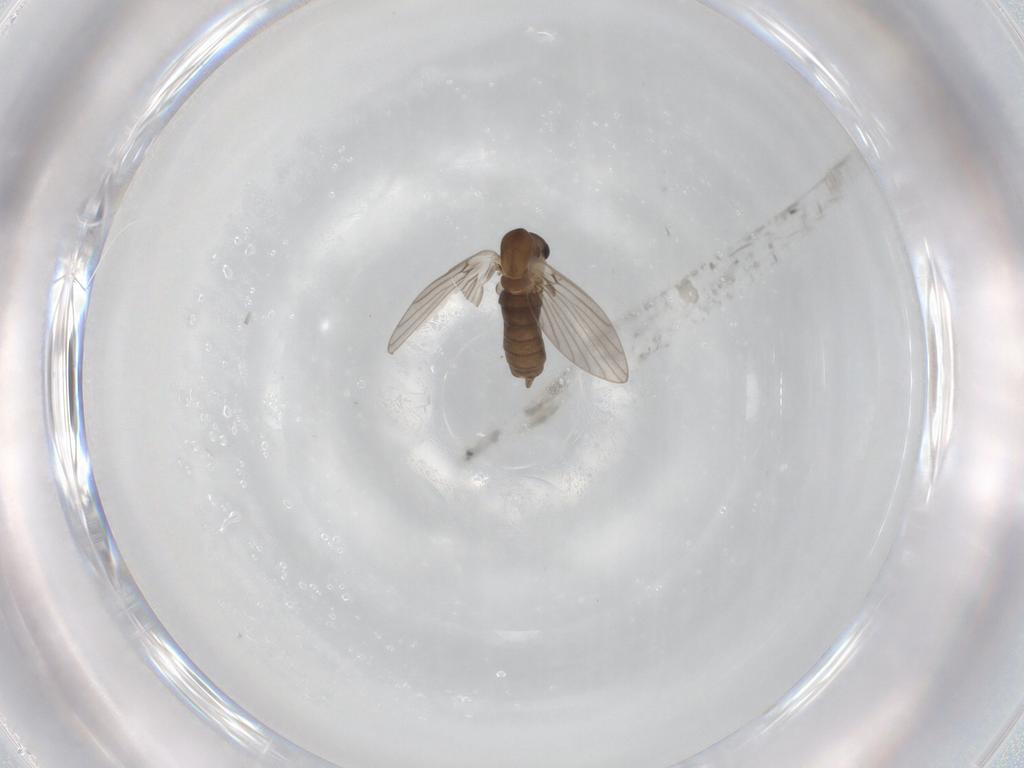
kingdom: Animalia
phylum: Arthropoda
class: Insecta
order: Diptera
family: Psychodidae
